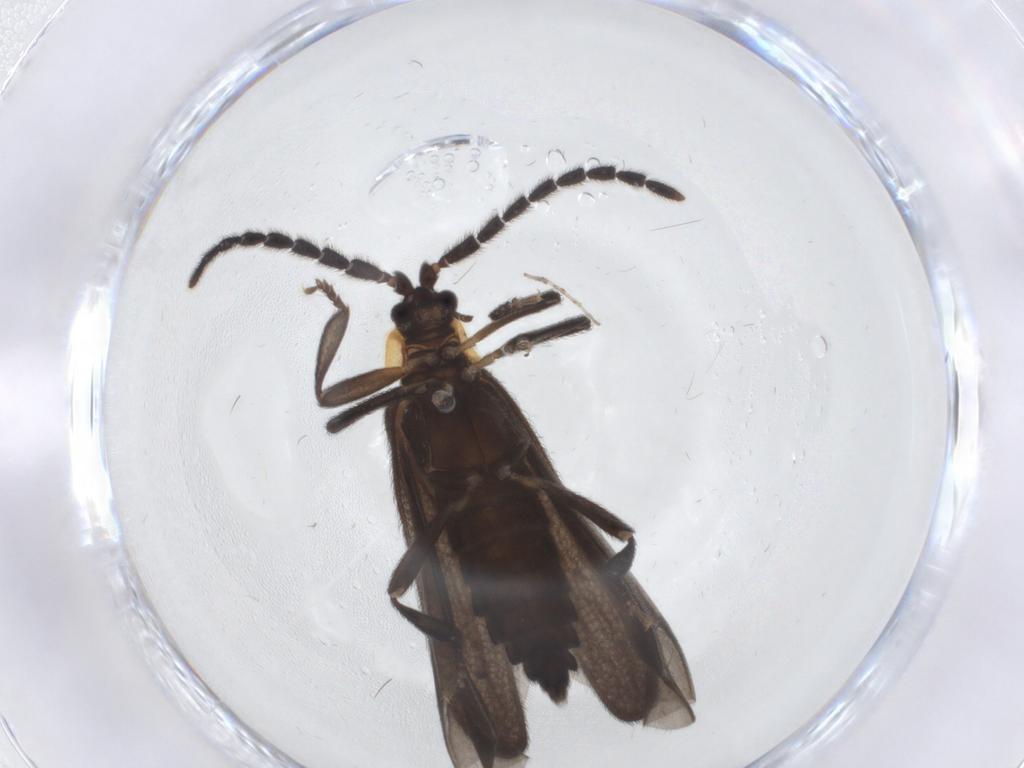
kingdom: Animalia
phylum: Arthropoda
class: Insecta
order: Coleoptera
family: Lycidae
